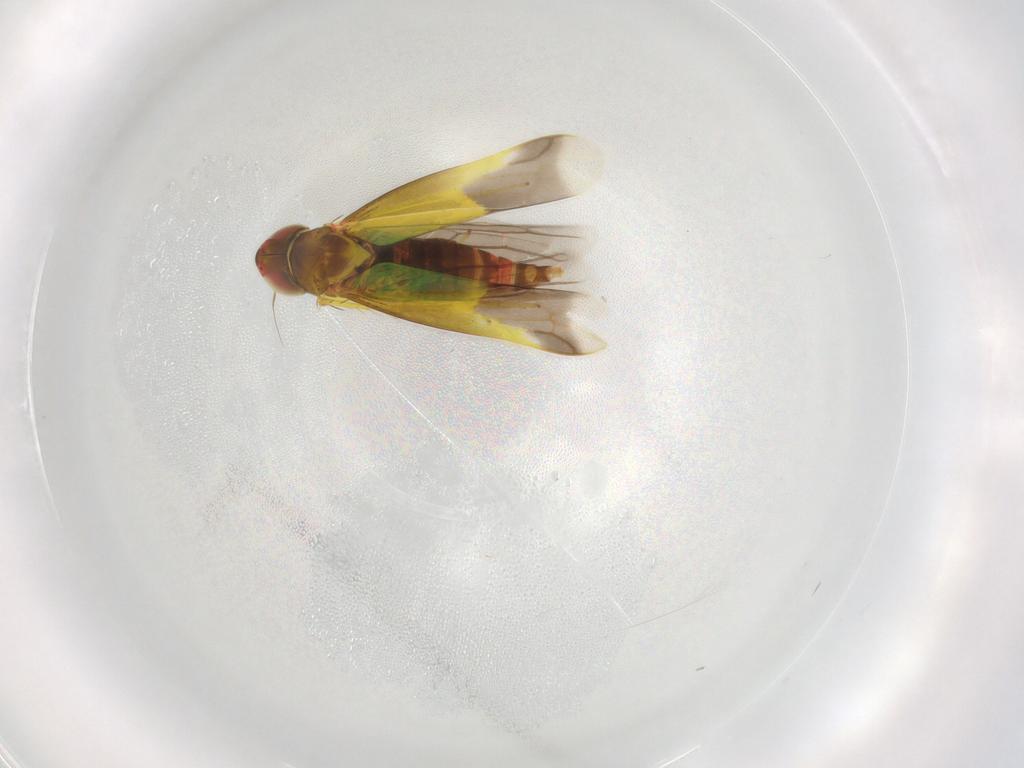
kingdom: Animalia
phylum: Arthropoda
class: Insecta
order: Hemiptera
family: Cicadellidae
